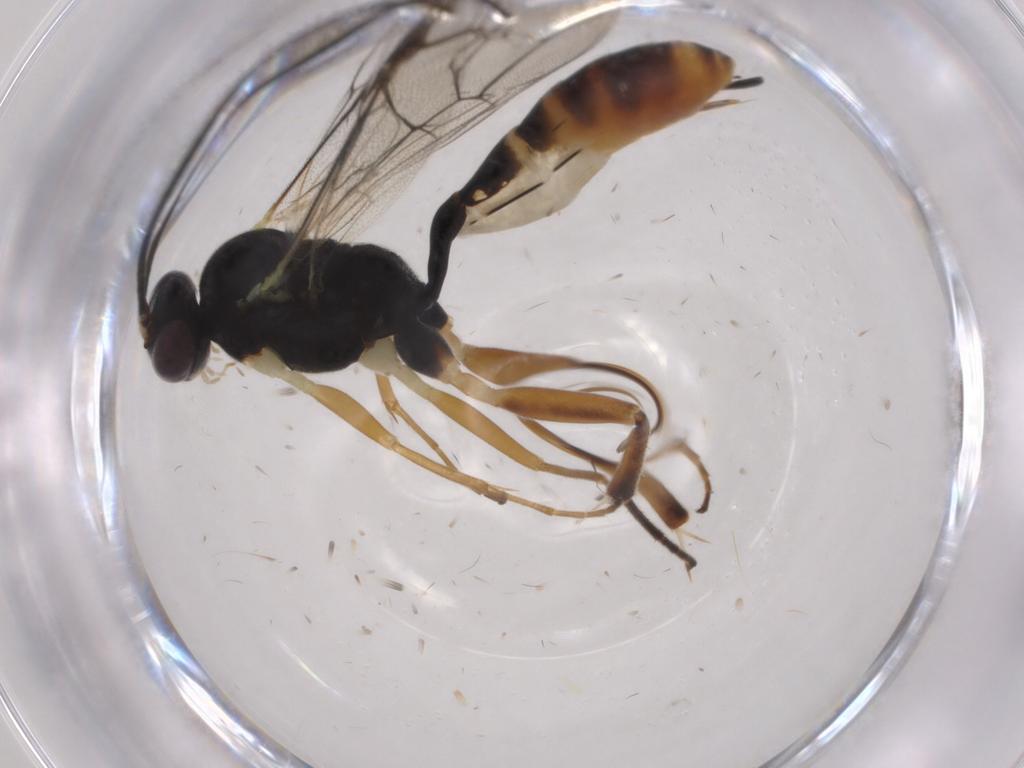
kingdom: Animalia
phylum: Arthropoda
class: Insecta
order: Hymenoptera
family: Ichneumonidae
